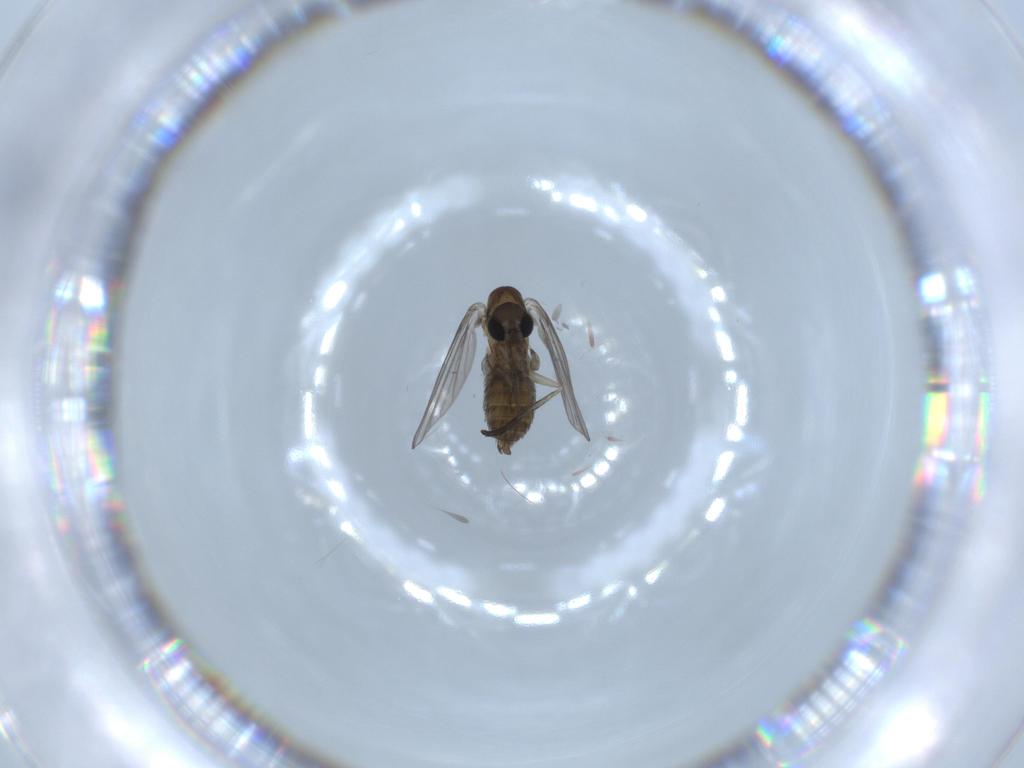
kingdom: Animalia
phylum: Arthropoda
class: Insecta
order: Diptera
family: Psychodidae
